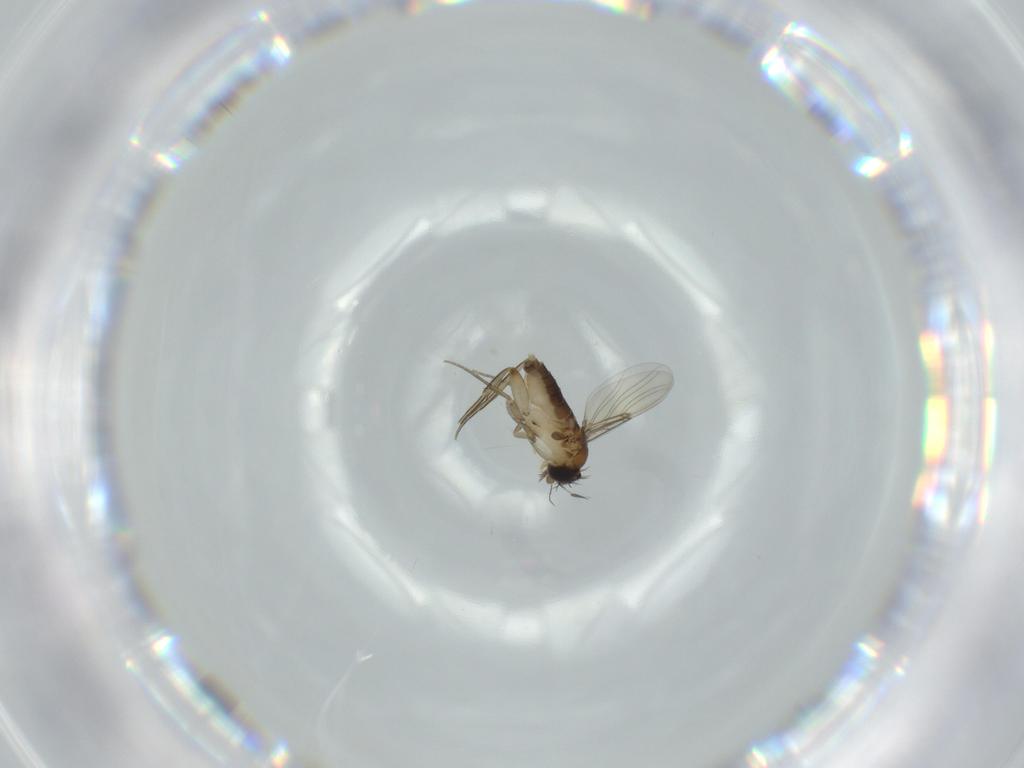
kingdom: Animalia
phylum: Arthropoda
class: Insecta
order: Diptera
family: Phoridae
